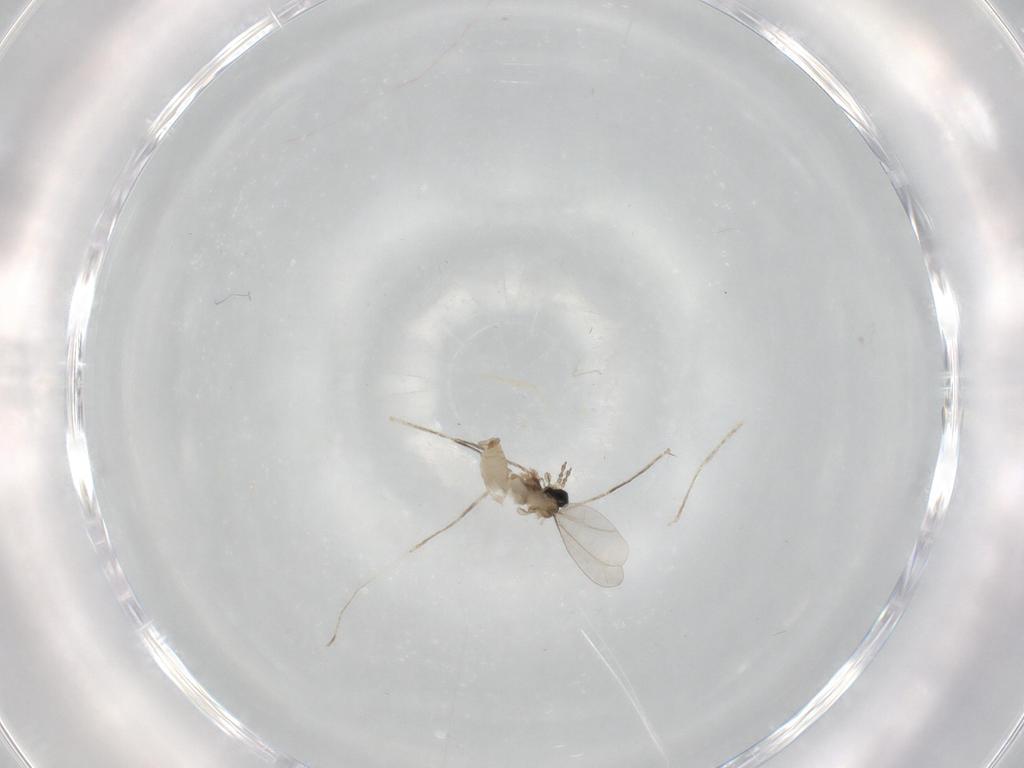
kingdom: Animalia
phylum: Arthropoda
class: Insecta
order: Diptera
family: Cecidomyiidae
